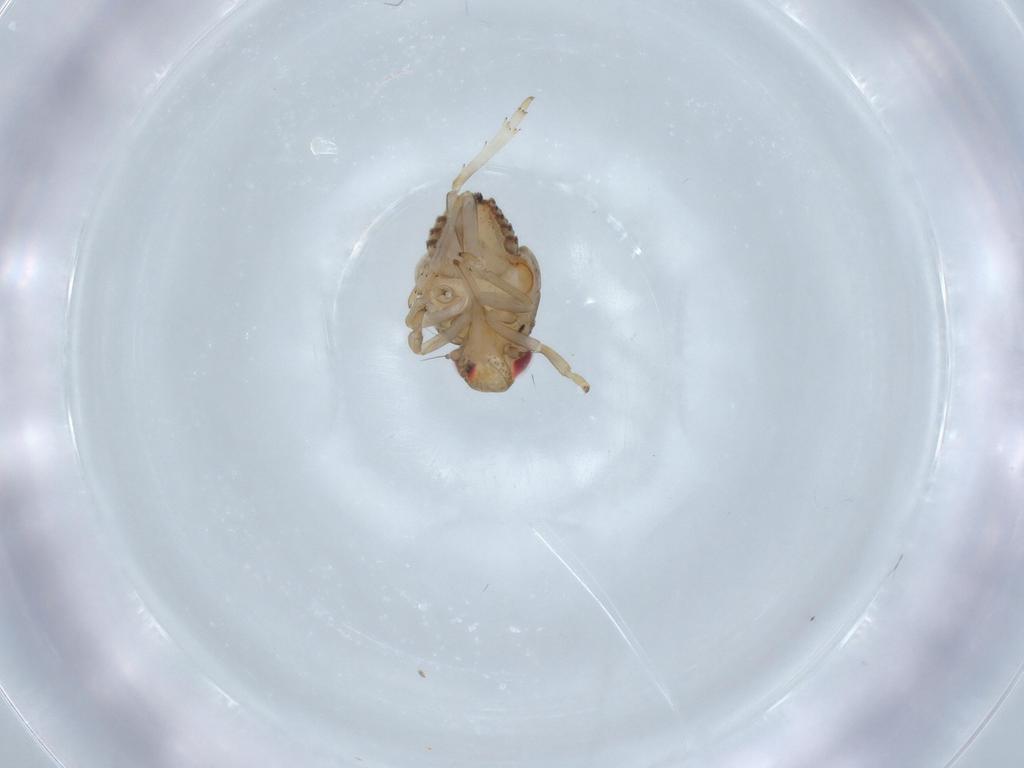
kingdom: Animalia
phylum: Arthropoda
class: Insecta
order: Hemiptera
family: Issidae
